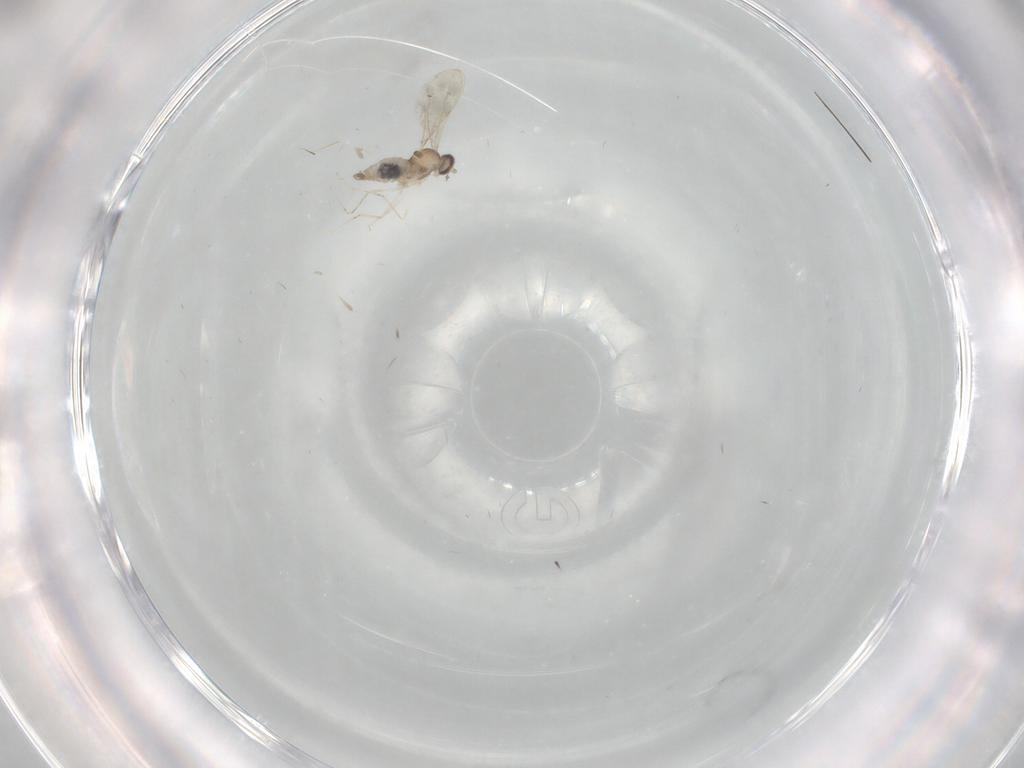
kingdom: Animalia
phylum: Arthropoda
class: Insecta
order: Diptera
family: Cecidomyiidae
